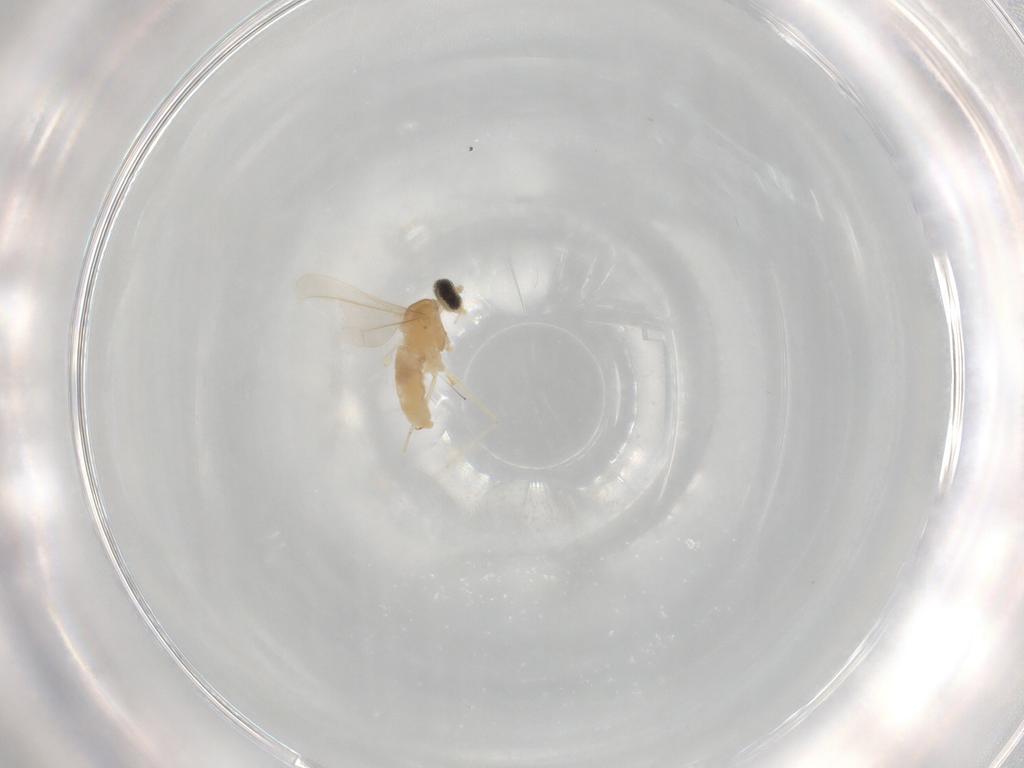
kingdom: Animalia
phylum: Arthropoda
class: Insecta
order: Diptera
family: Cecidomyiidae
